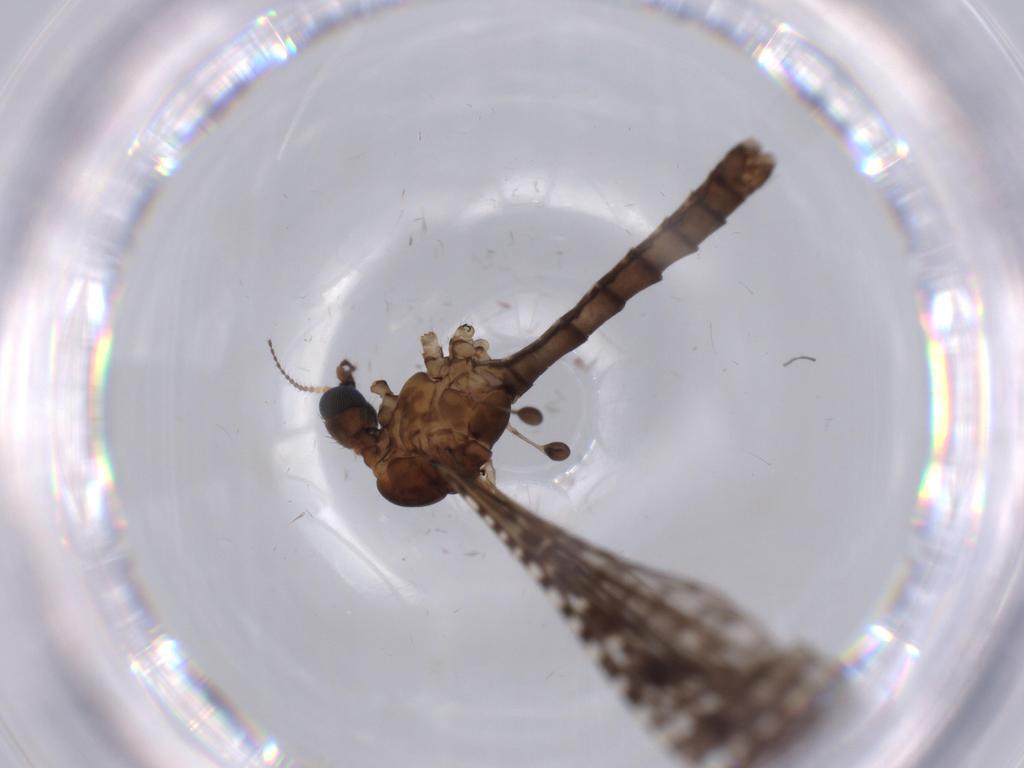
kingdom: Animalia
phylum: Arthropoda
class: Insecta
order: Diptera
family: Sciaridae
